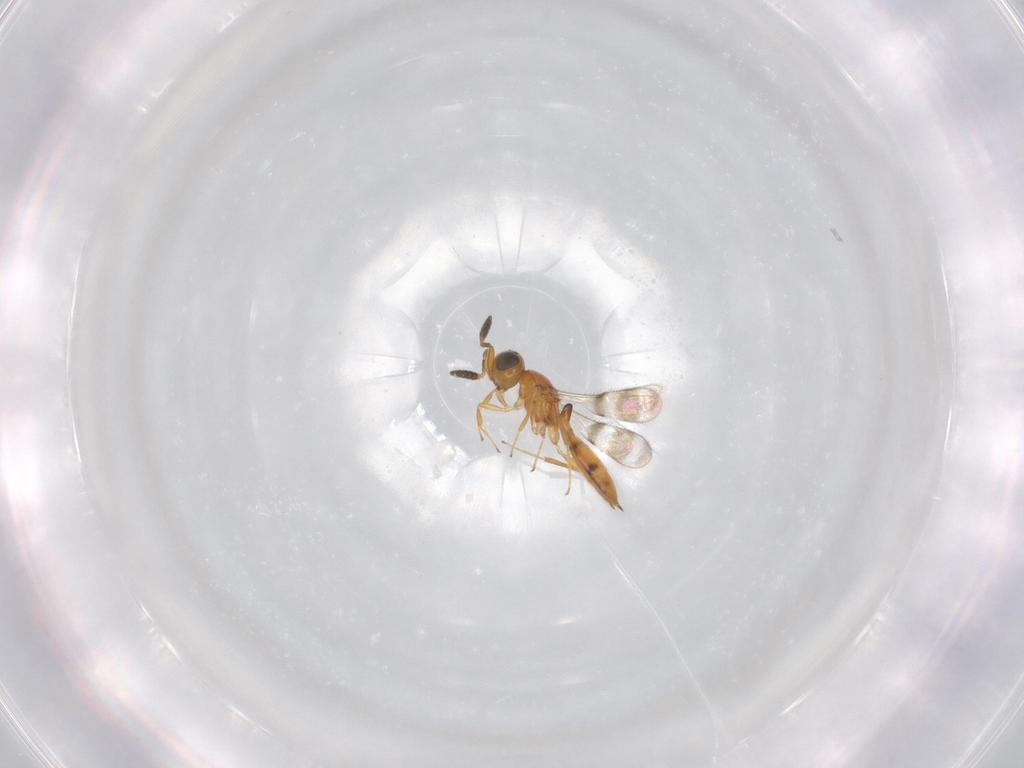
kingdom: Animalia
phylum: Arthropoda
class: Insecta
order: Hymenoptera
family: Scelionidae
